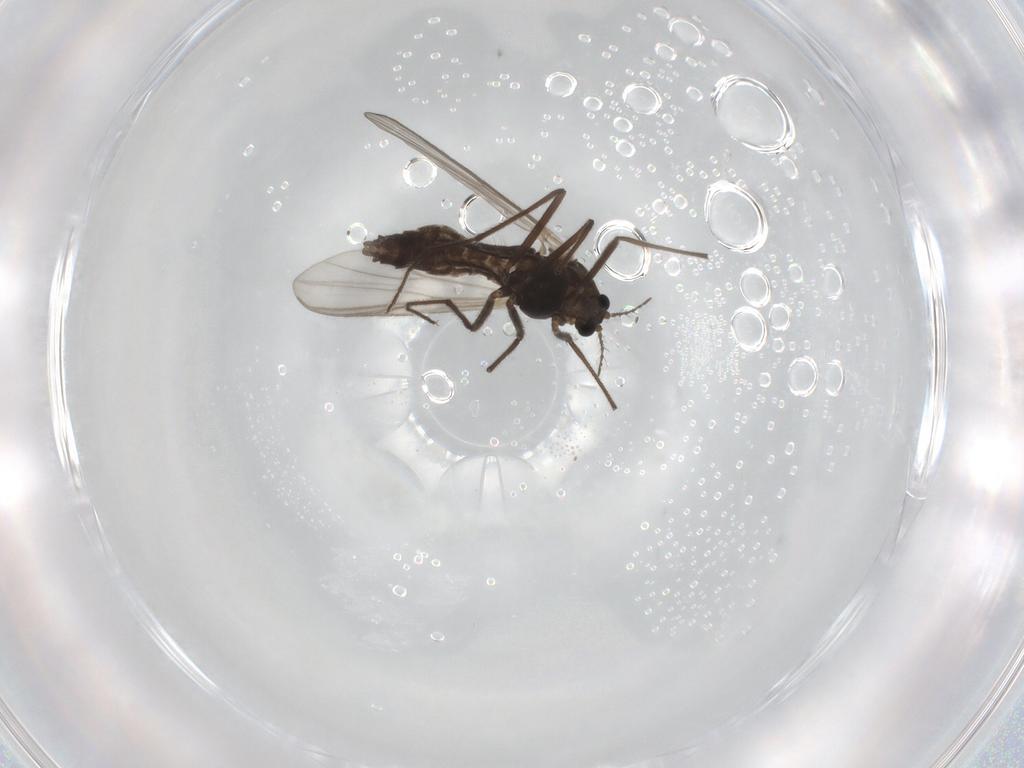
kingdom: Animalia
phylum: Arthropoda
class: Insecta
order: Diptera
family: Chironomidae
